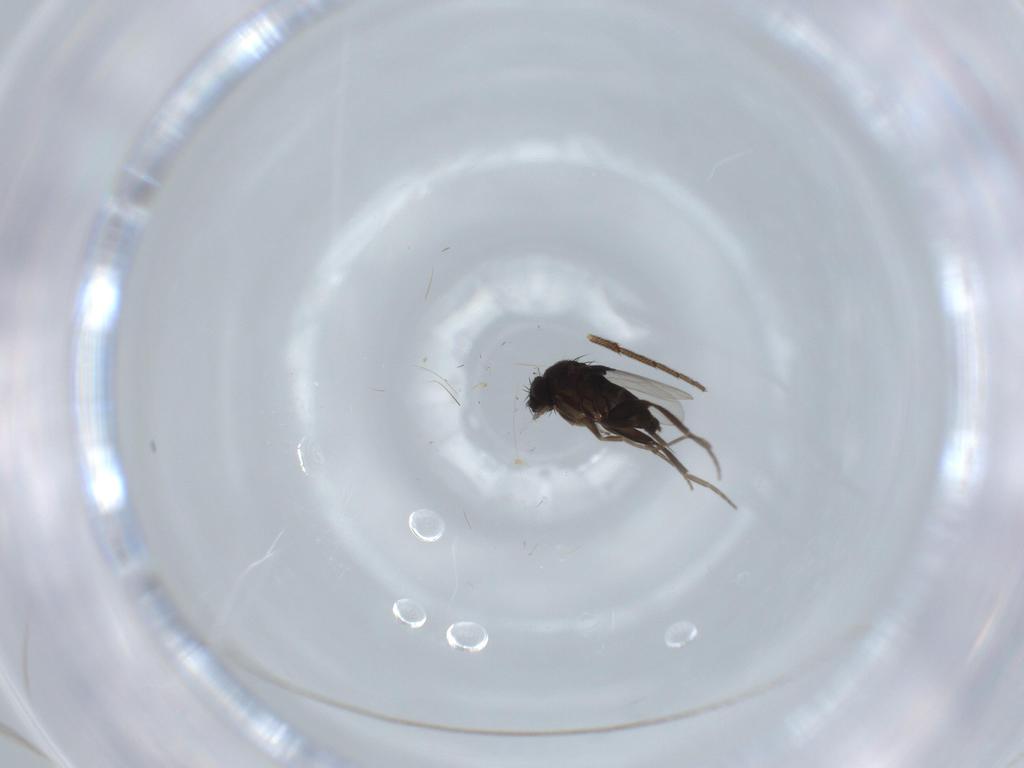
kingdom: Animalia
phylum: Arthropoda
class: Insecta
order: Diptera
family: Phoridae
